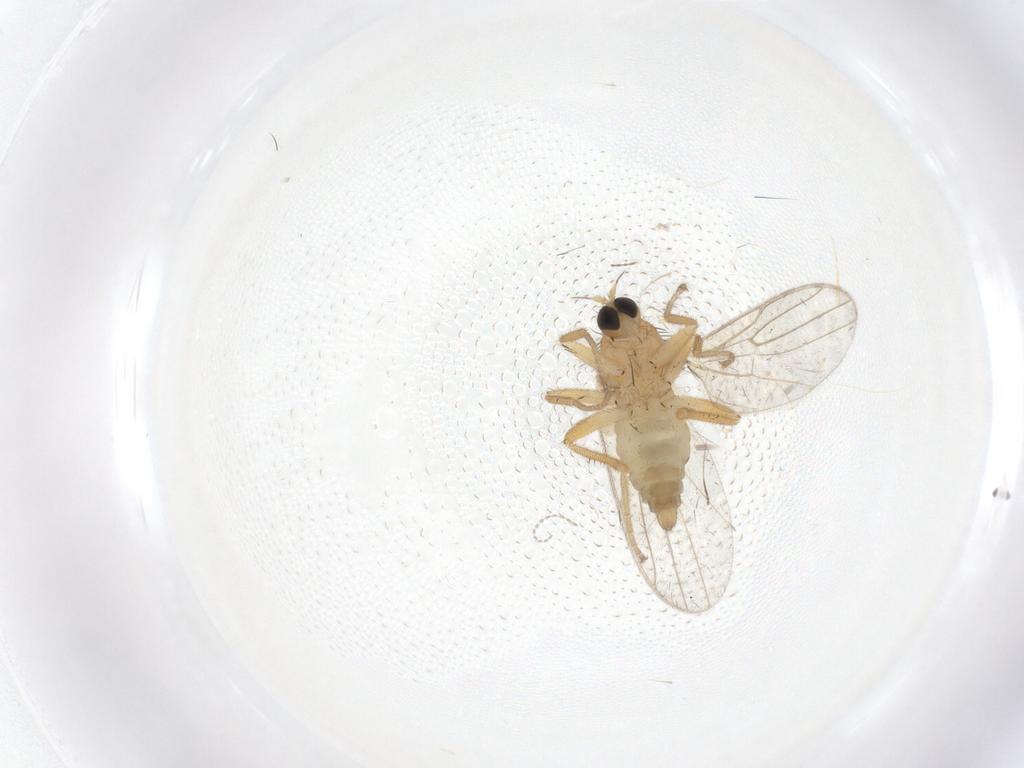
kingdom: Animalia
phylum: Arthropoda
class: Insecta
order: Diptera
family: Hybotidae
